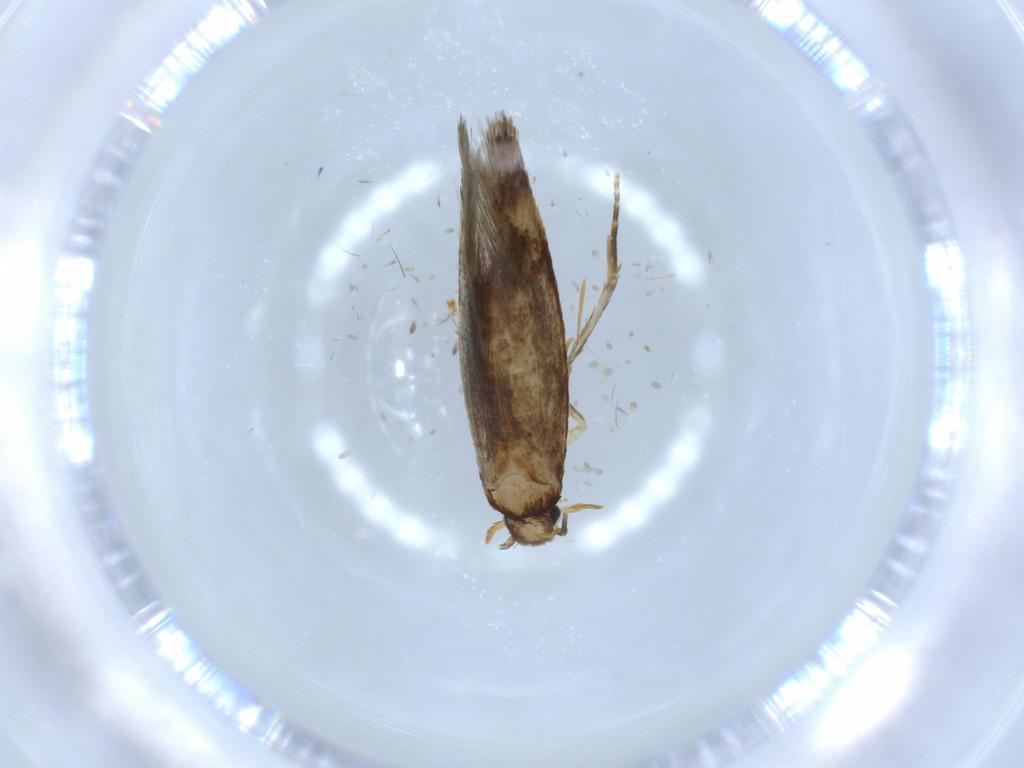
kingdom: Animalia
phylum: Arthropoda
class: Insecta
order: Lepidoptera
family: Tineidae
